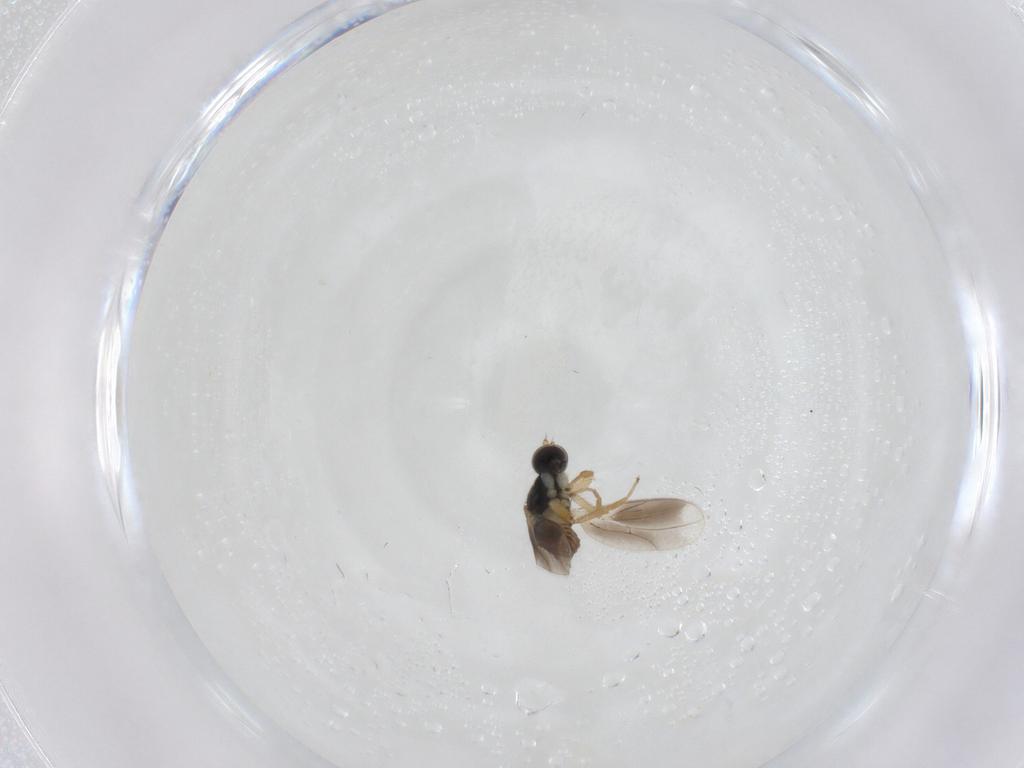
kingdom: Animalia
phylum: Arthropoda
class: Insecta
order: Diptera
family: Hybotidae
